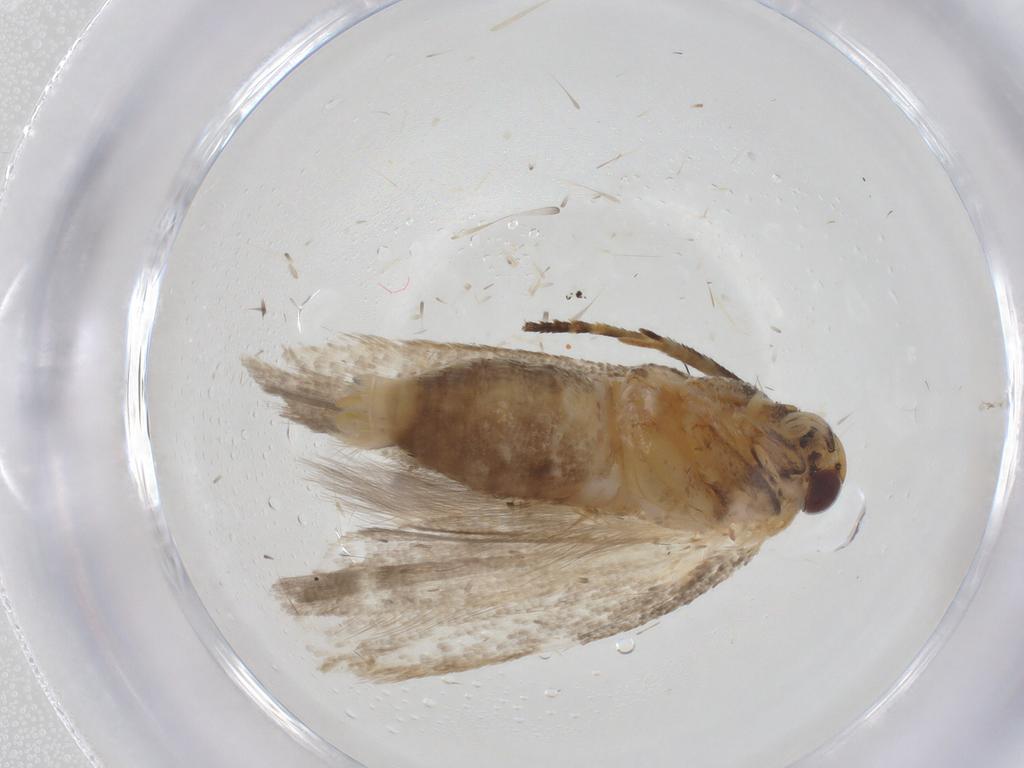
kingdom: Animalia
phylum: Arthropoda
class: Insecta
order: Lepidoptera
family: Gelechiidae
